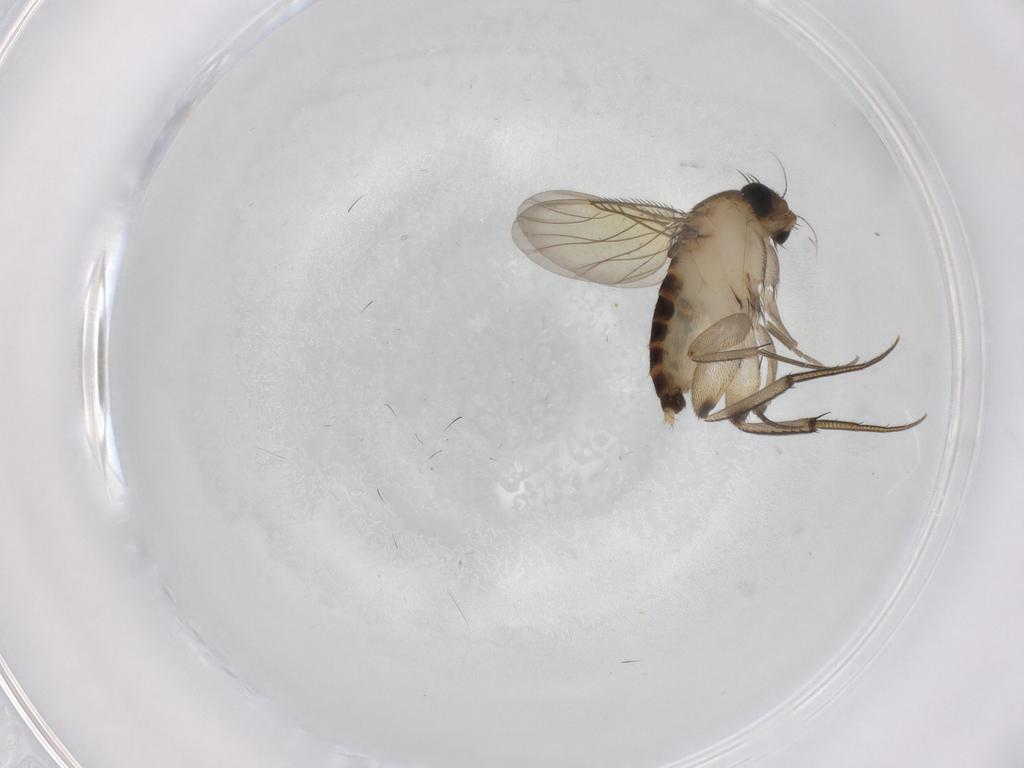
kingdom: Animalia
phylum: Arthropoda
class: Insecta
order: Diptera
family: Phoridae
